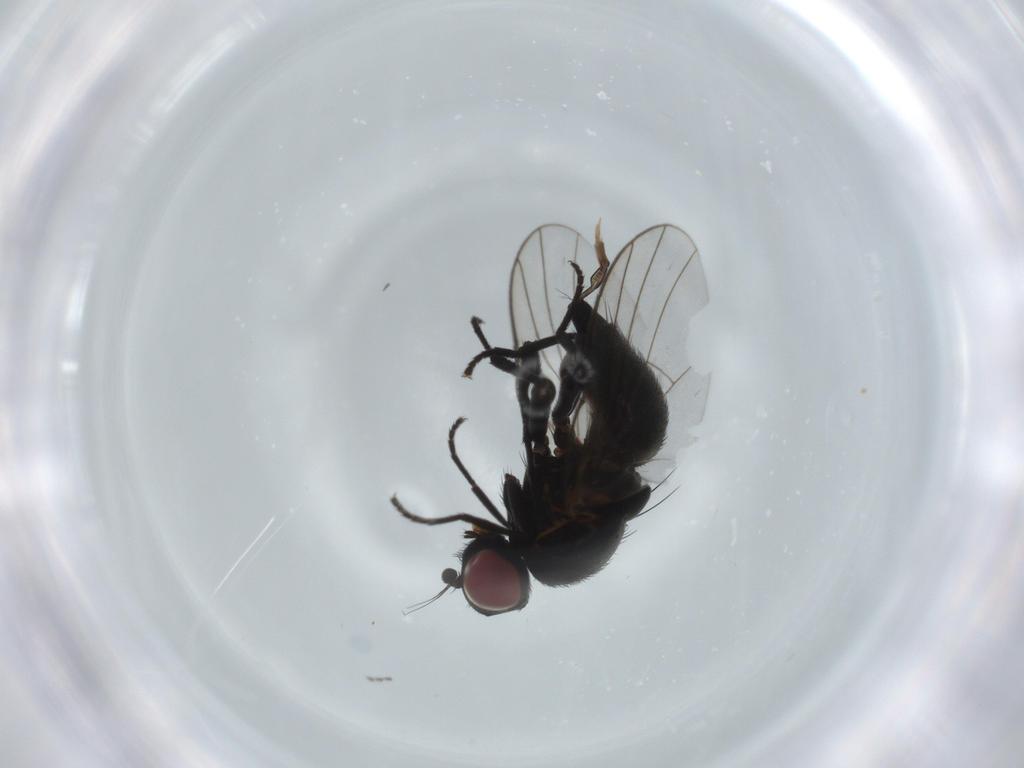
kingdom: Animalia
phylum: Arthropoda
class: Insecta
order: Diptera
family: Agromyzidae
